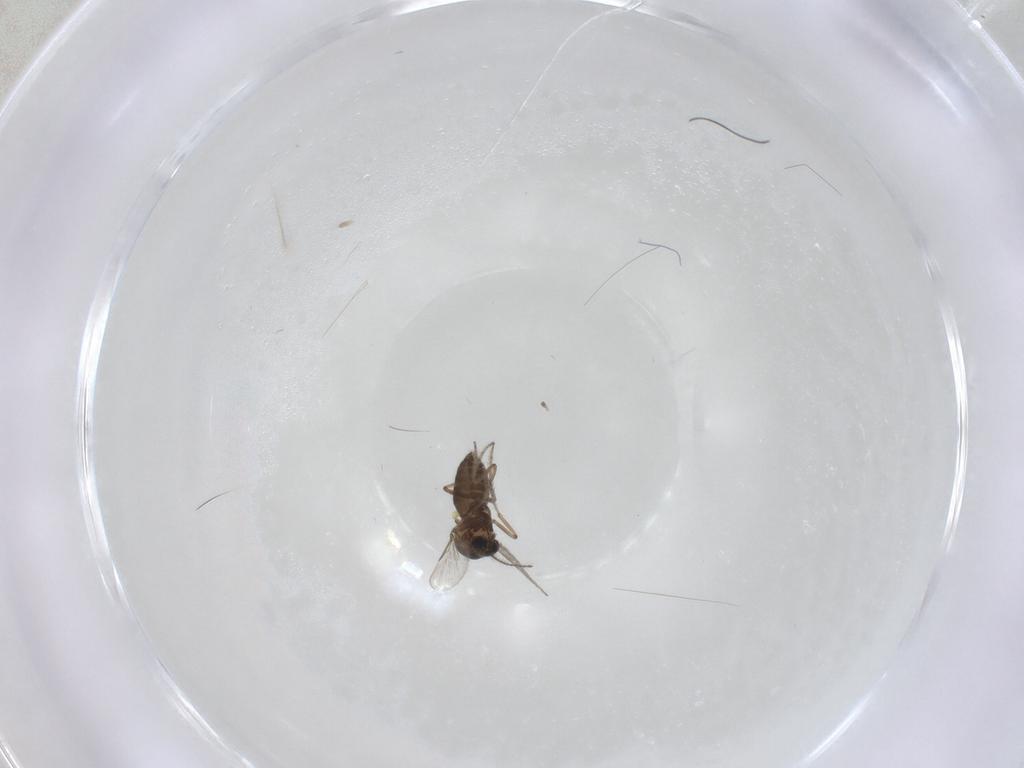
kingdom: Animalia
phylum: Arthropoda
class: Insecta
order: Diptera
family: Ceratopogonidae
